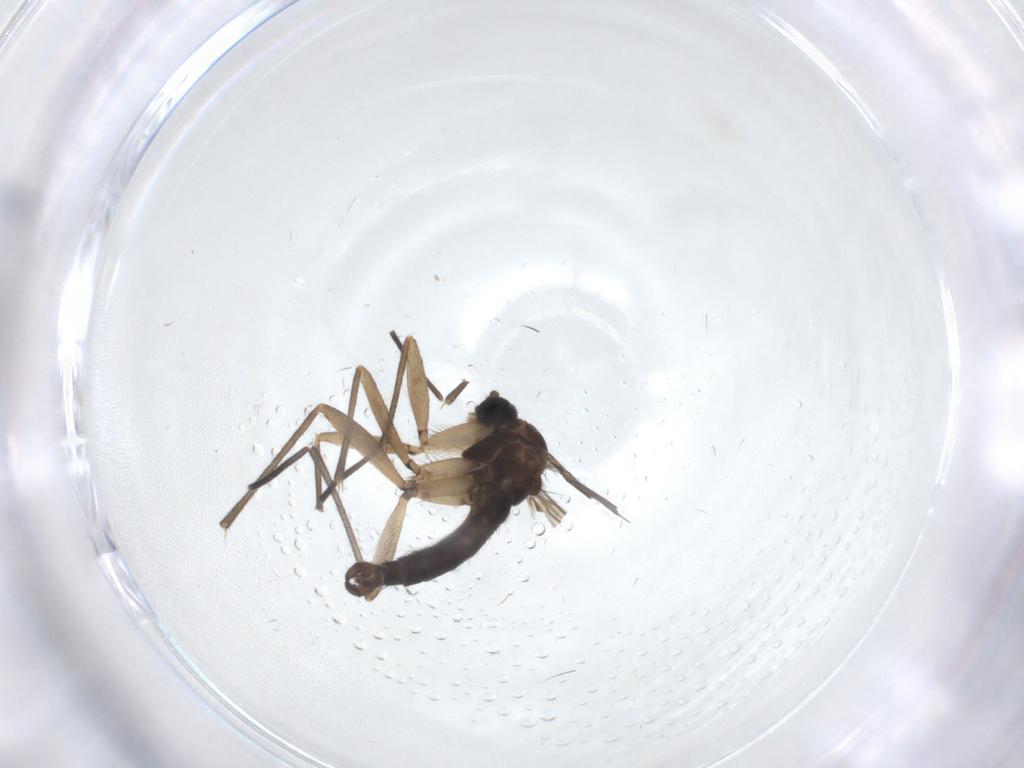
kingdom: Animalia
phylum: Arthropoda
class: Insecta
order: Diptera
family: Sciaridae
